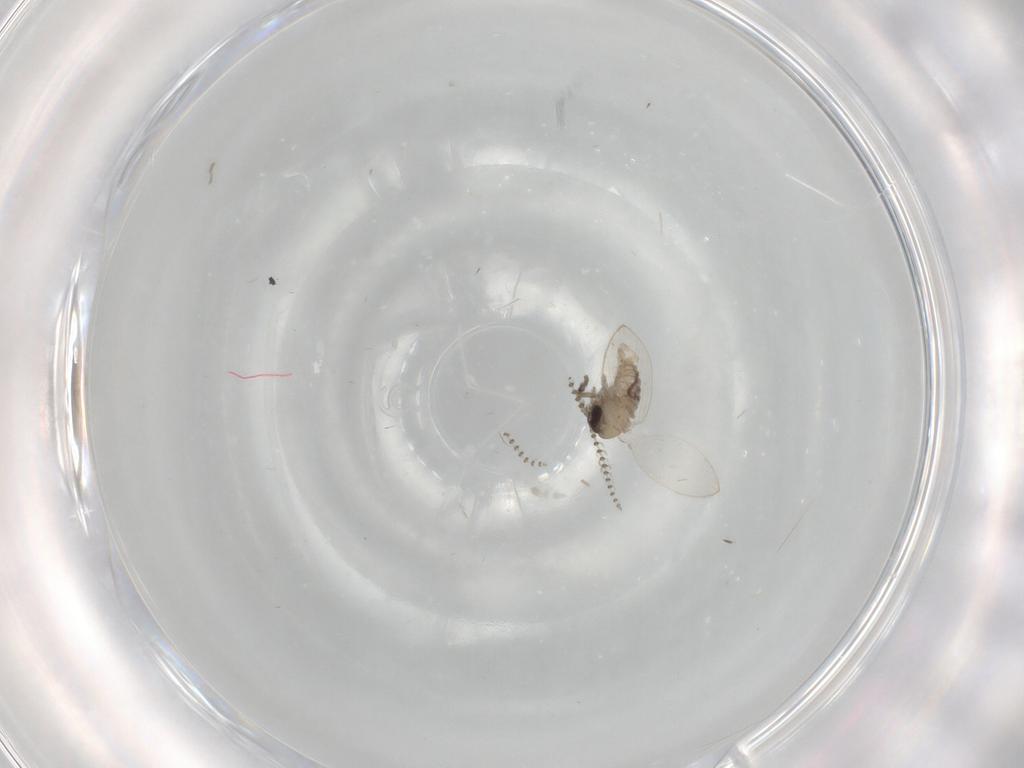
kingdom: Animalia
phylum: Arthropoda
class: Insecta
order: Diptera
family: Psychodidae
